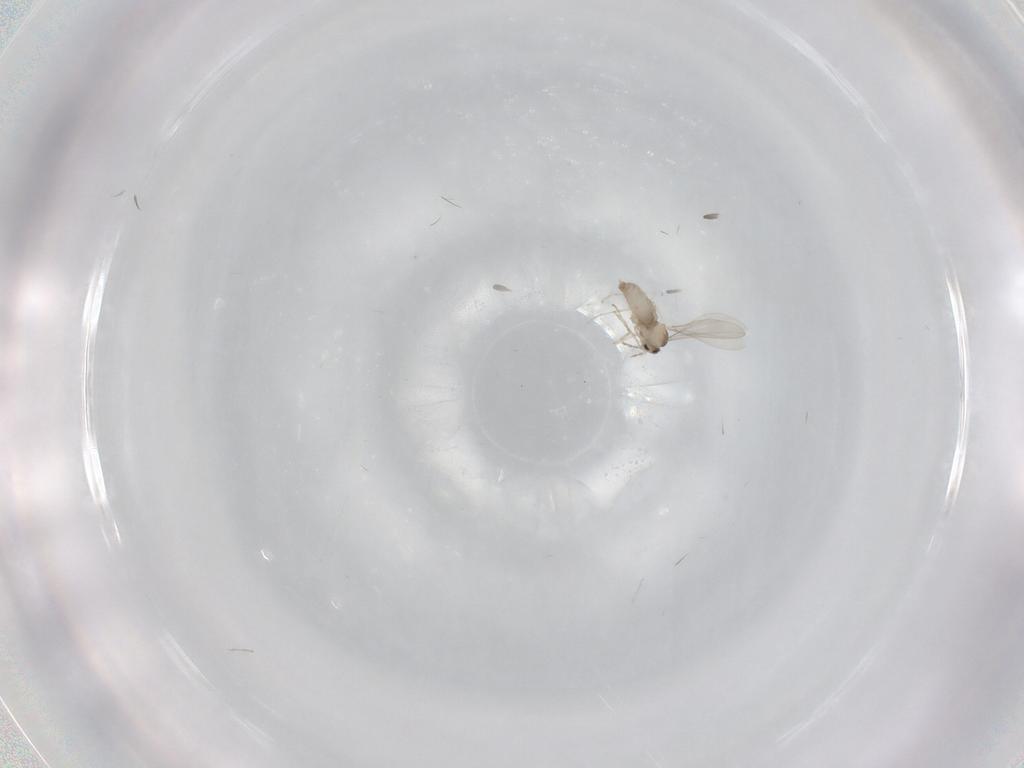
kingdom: Animalia
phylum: Arthropoda
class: Insecta
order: Diptera
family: Cecidomyiidae
